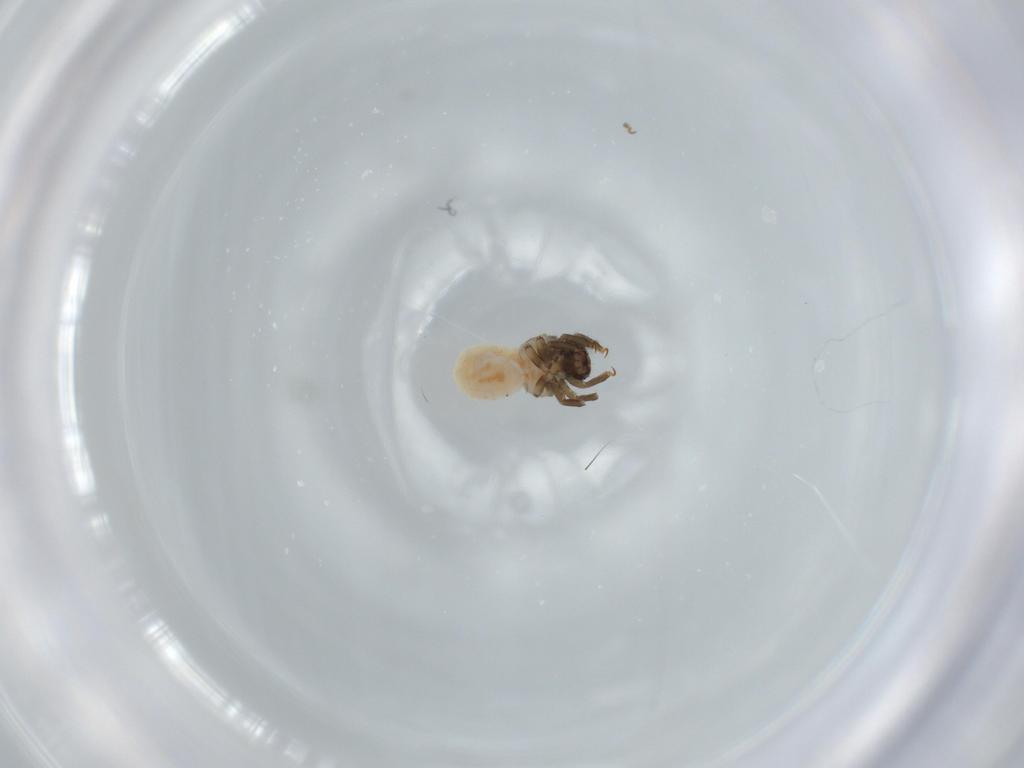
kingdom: Animalia
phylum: Arthropoda
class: Insecta
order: Coleoptera
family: Chrysomelidae
